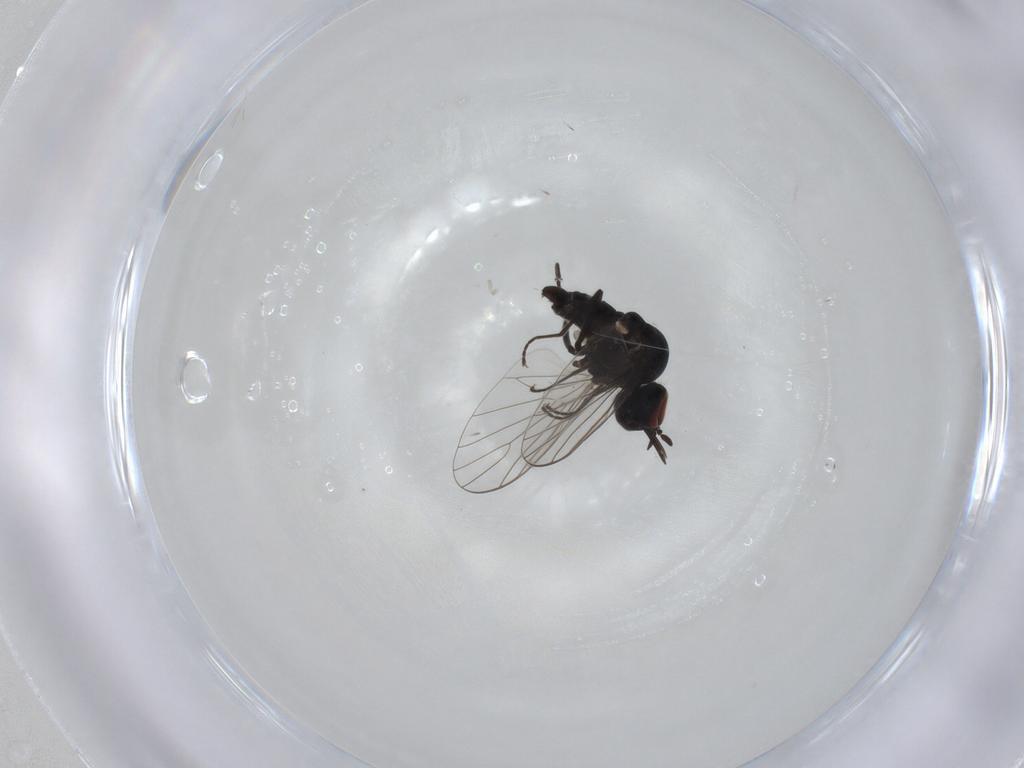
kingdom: Animalia
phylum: Arthropoda
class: Insecta
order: Diptera
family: Bombyliidae
